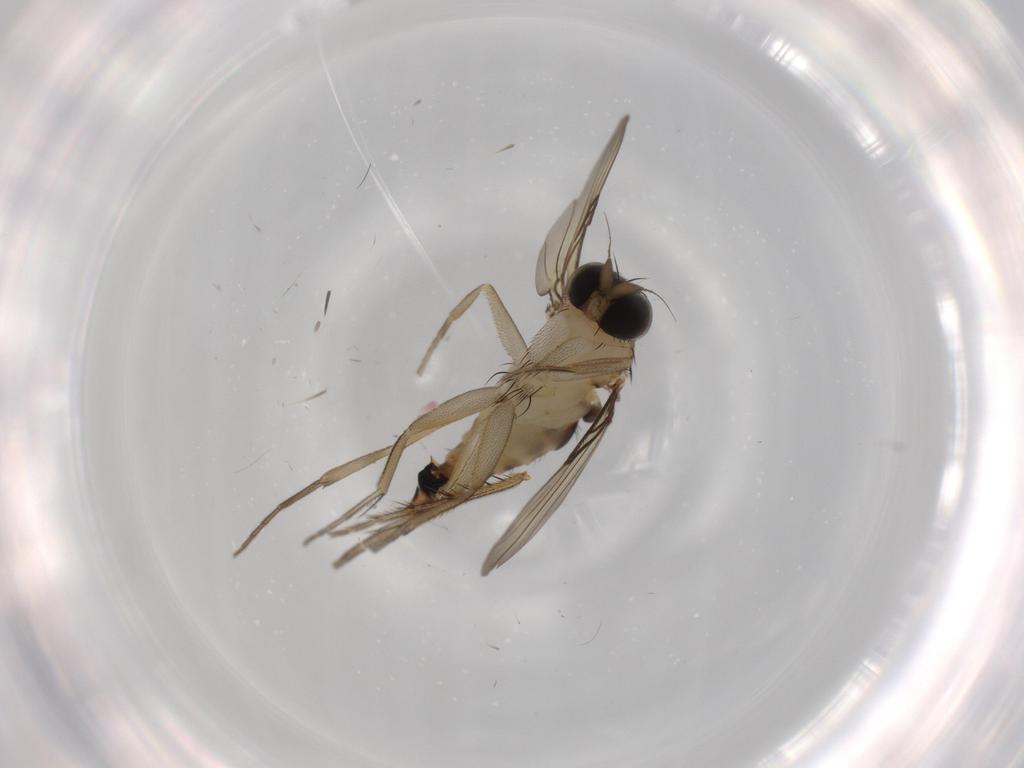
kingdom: Animalia
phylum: Arthropoda
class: Insecta
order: Diptera
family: Phoridae
